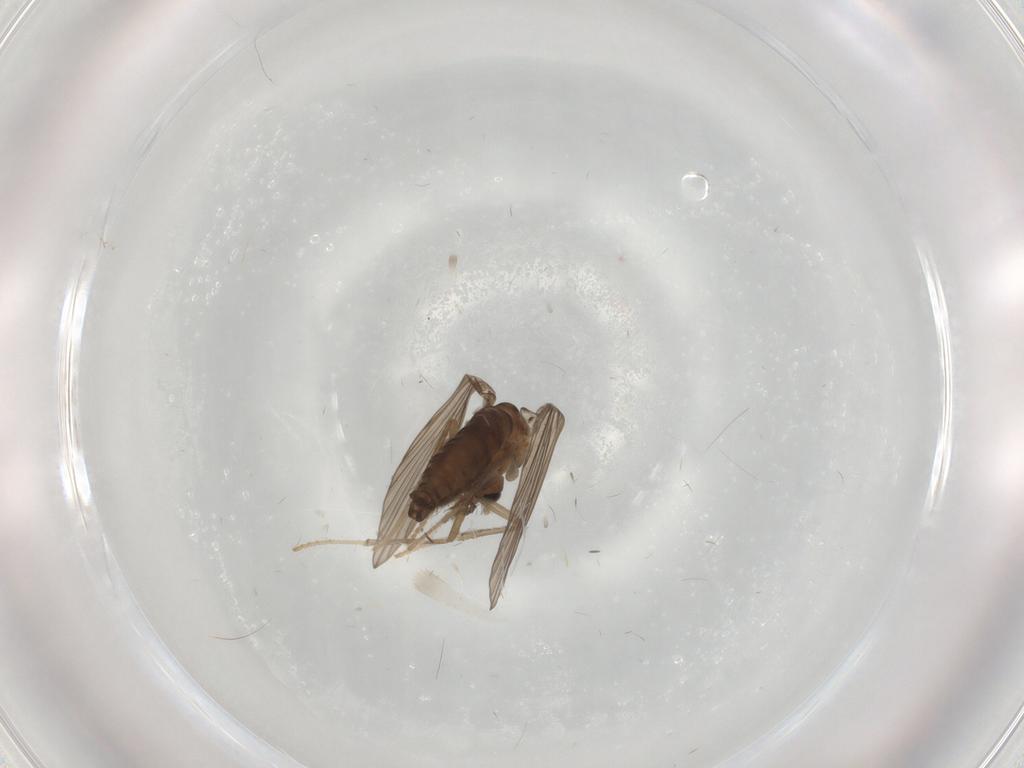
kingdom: Animalia
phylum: Arthropoda
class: Insecta
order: Diptera
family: Psychodidae
